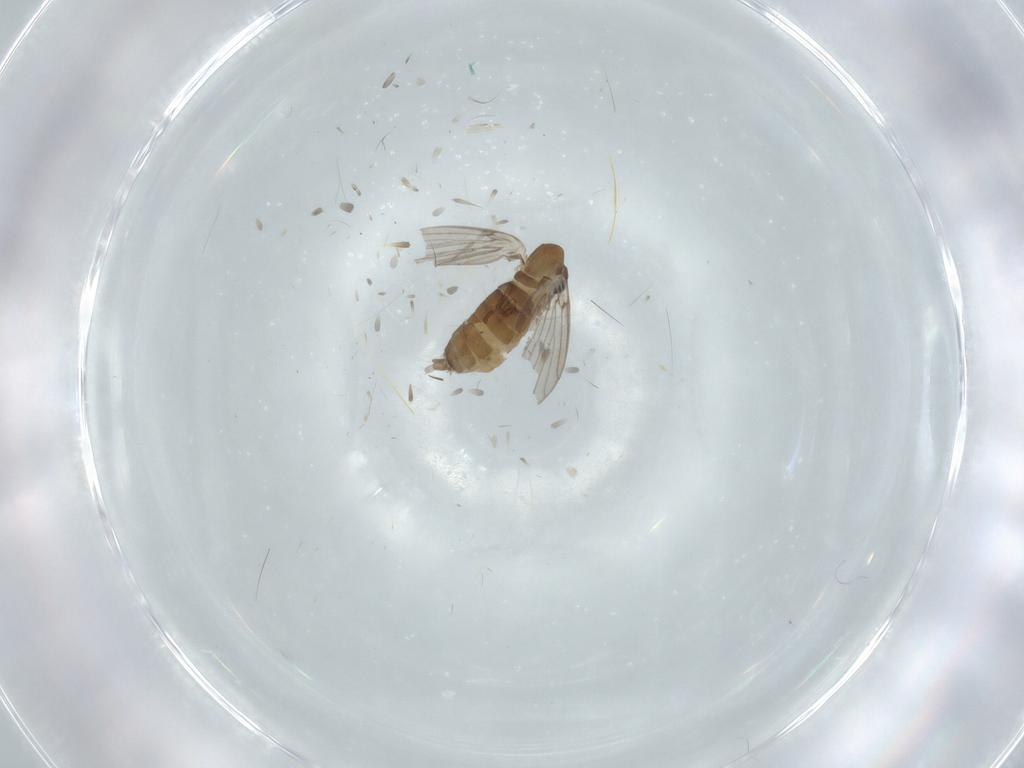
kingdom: Animalia
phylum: Arthropoda
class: Insecta
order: Diptera
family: Psychodidae
